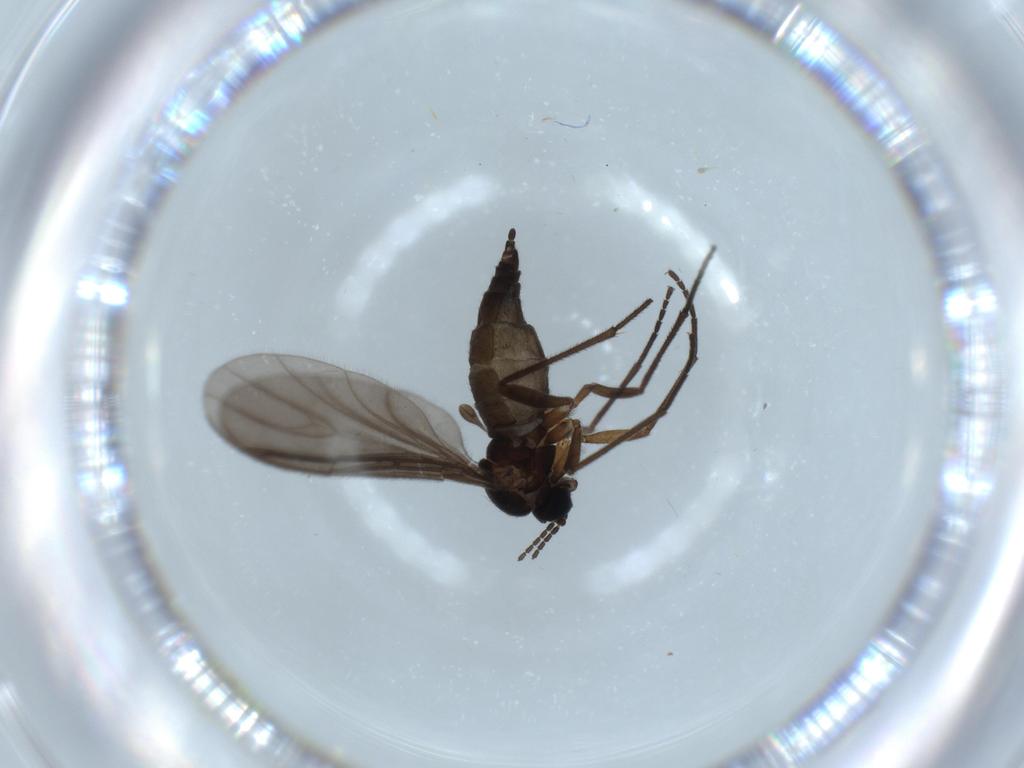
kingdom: Animalia
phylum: Arthropoda
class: Insecta
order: Diptera
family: Sciaridae
